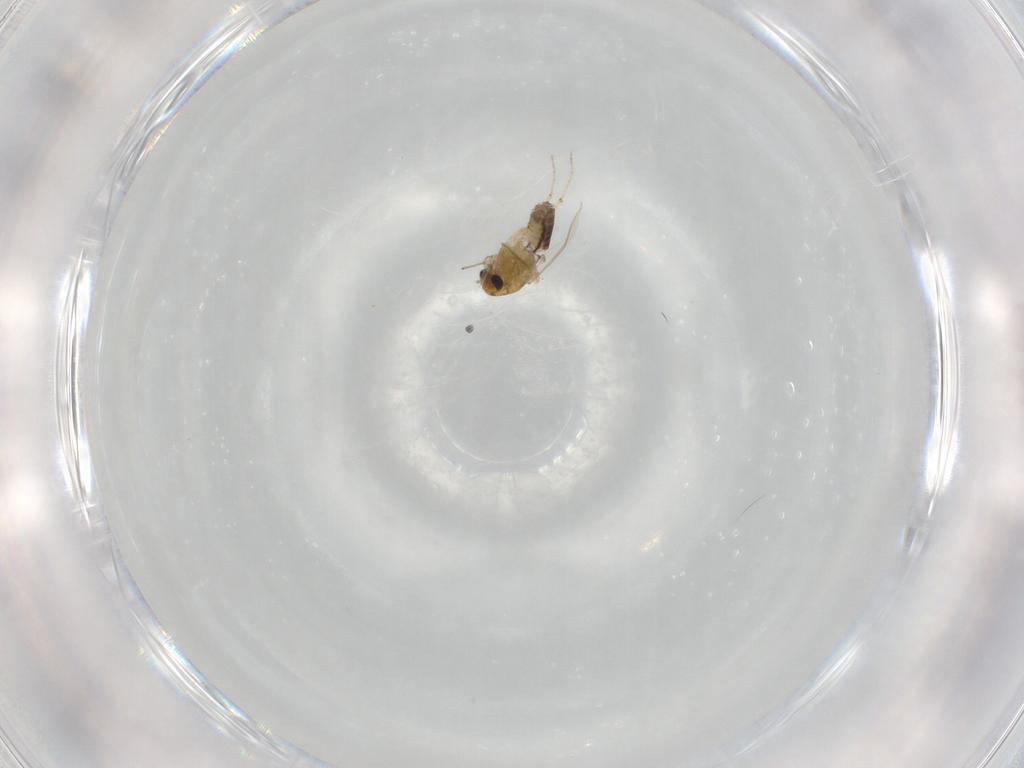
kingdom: Animalia
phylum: Arthropoda
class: Insecta
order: Diptera
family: Chironomidae
